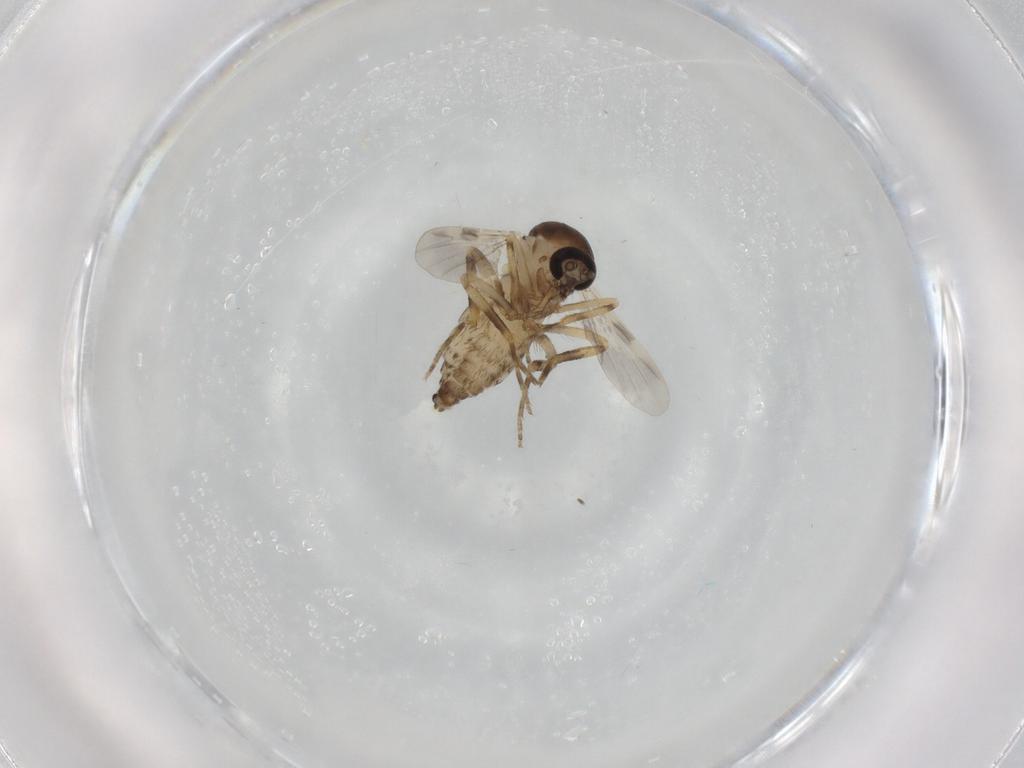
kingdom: Animalia
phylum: Arthropoda
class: Insecta
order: Diptera
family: Ceratopogonidae
